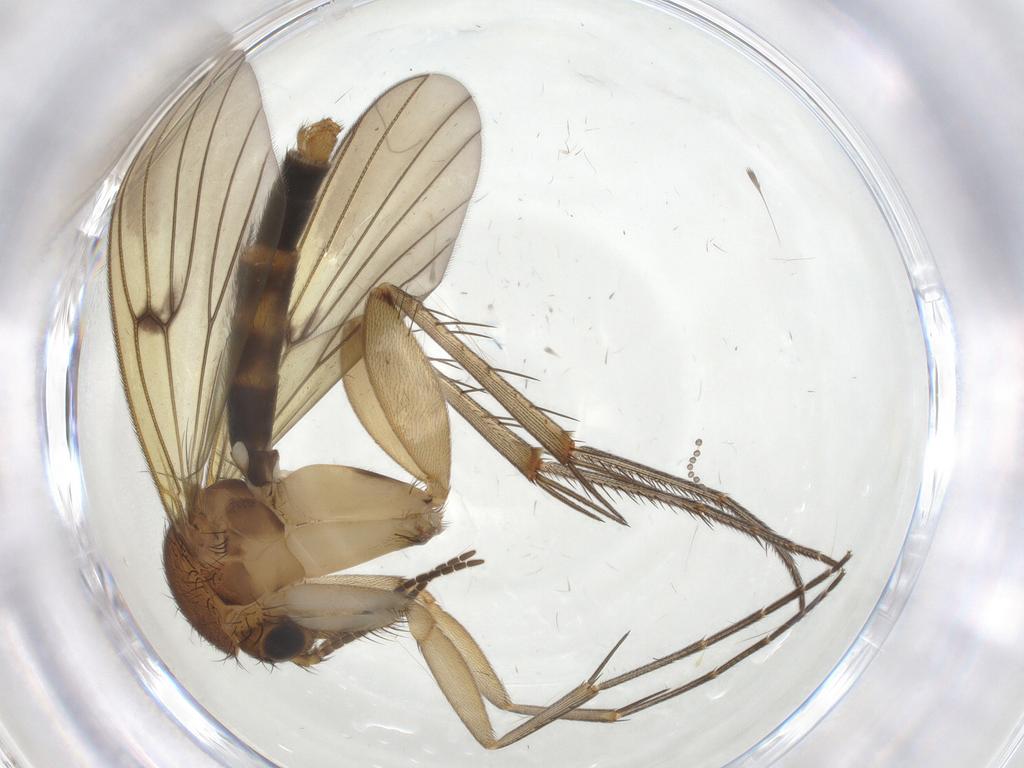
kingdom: Animalia
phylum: Arthropoda
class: Insecta
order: Diptera
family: Mycetophilidae
